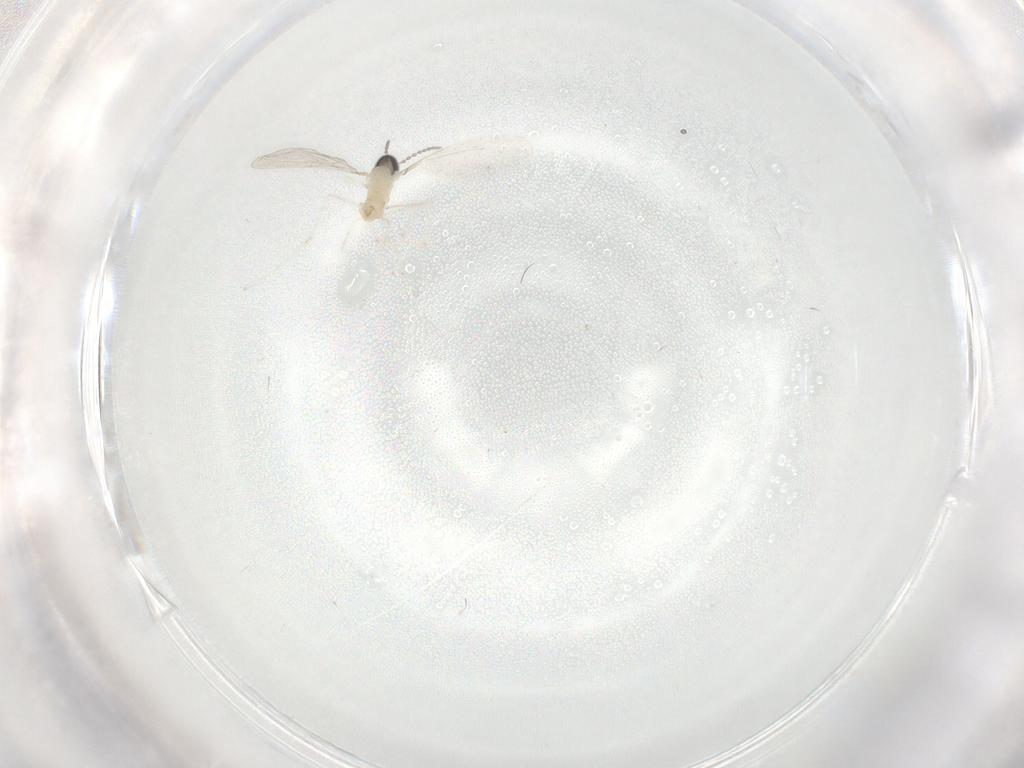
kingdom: Animalia
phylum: Arthropoda
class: Insecta
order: Diptera
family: Cecidomyiidae
